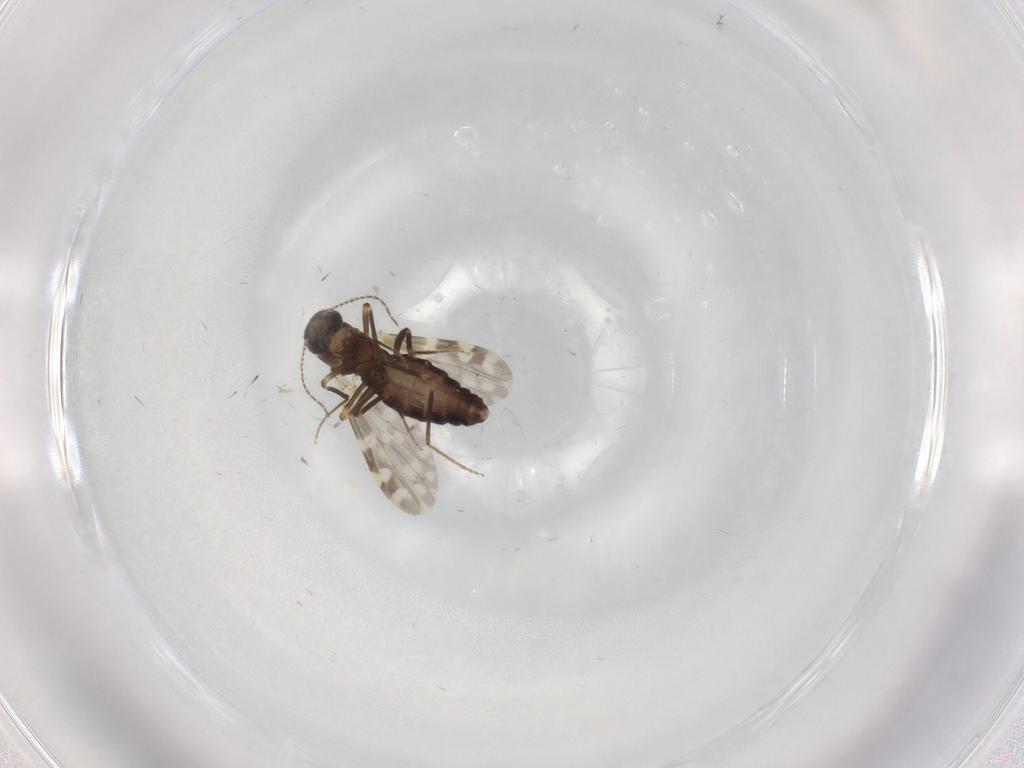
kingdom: Animalia
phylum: Arthropoda
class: Insecta
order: Diptera
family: Ceratopogonidae
